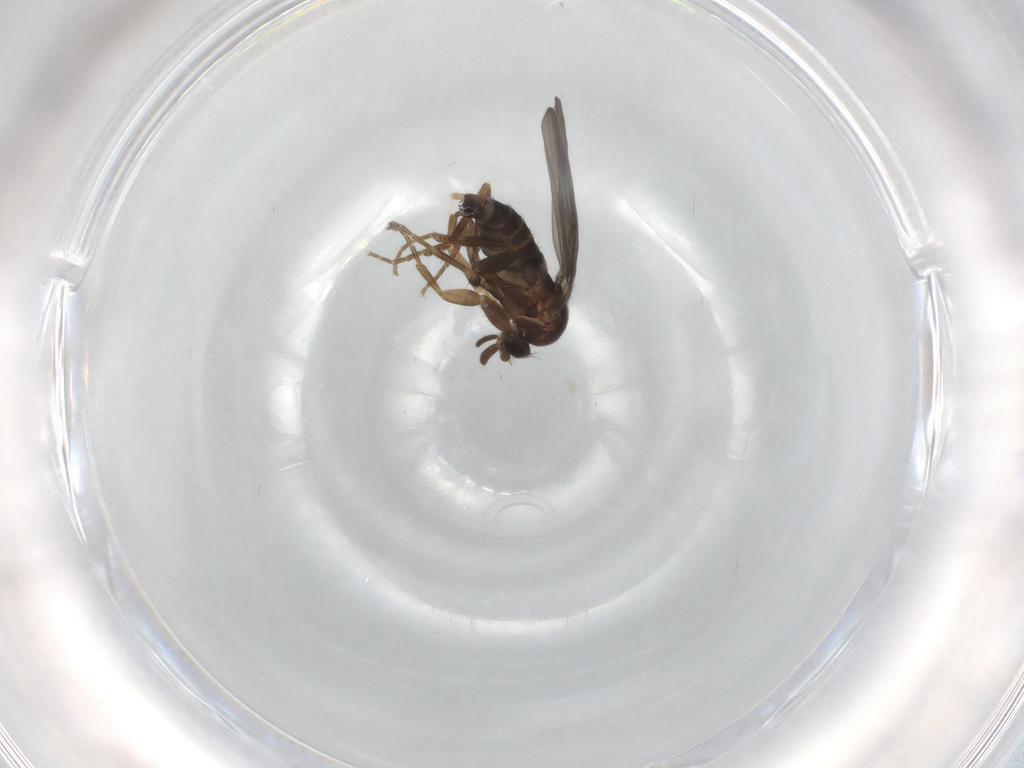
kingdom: Animalia
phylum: Arthropoda
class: Insecta
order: Diptera
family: Phoridae
